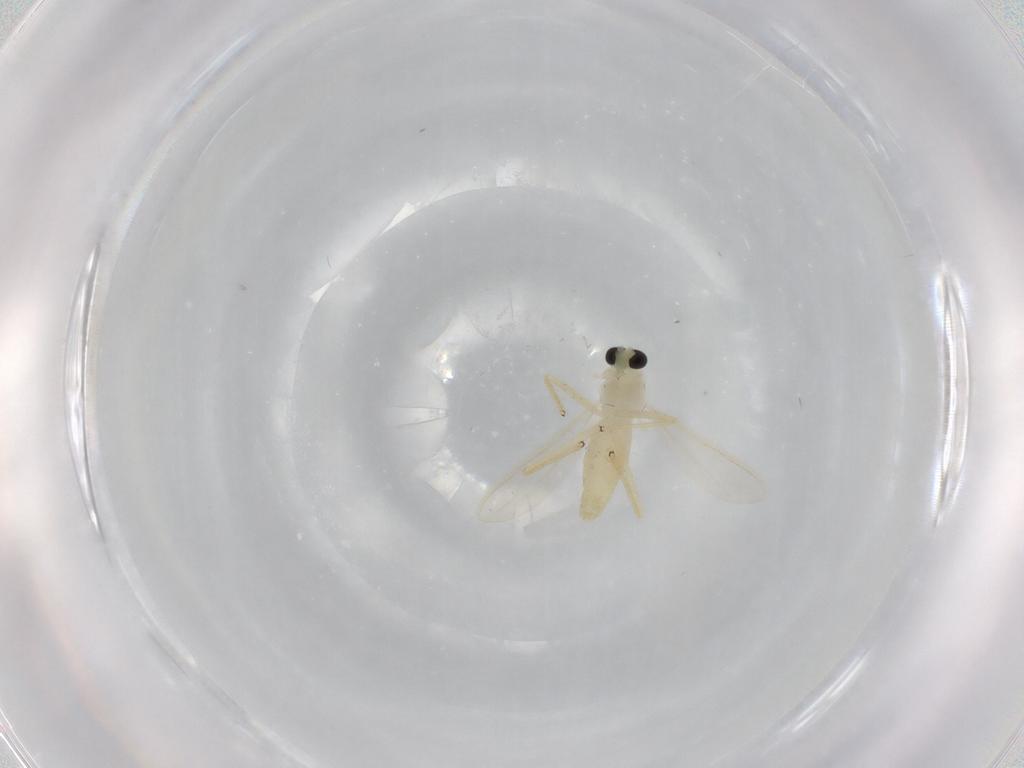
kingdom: Animalia
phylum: Arthropoda
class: Insecta
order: Diptera
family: Chironomidae
